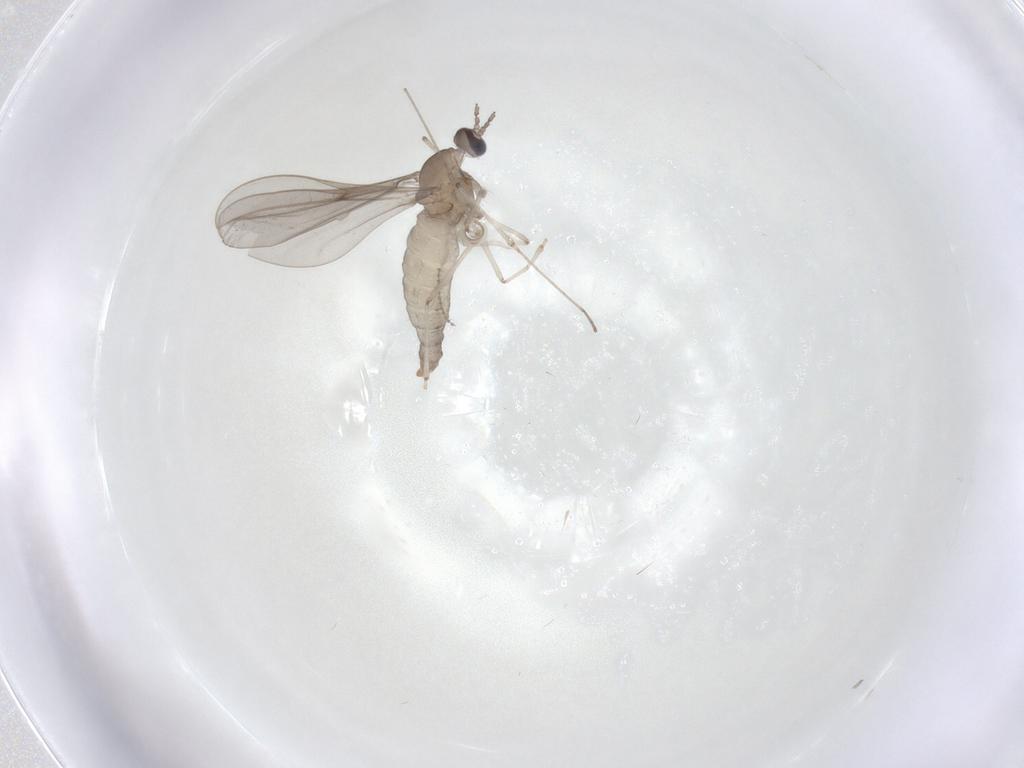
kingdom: Animalia
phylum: Arthropoda
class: Insecta
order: Diptera
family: Cecidomyiidae
